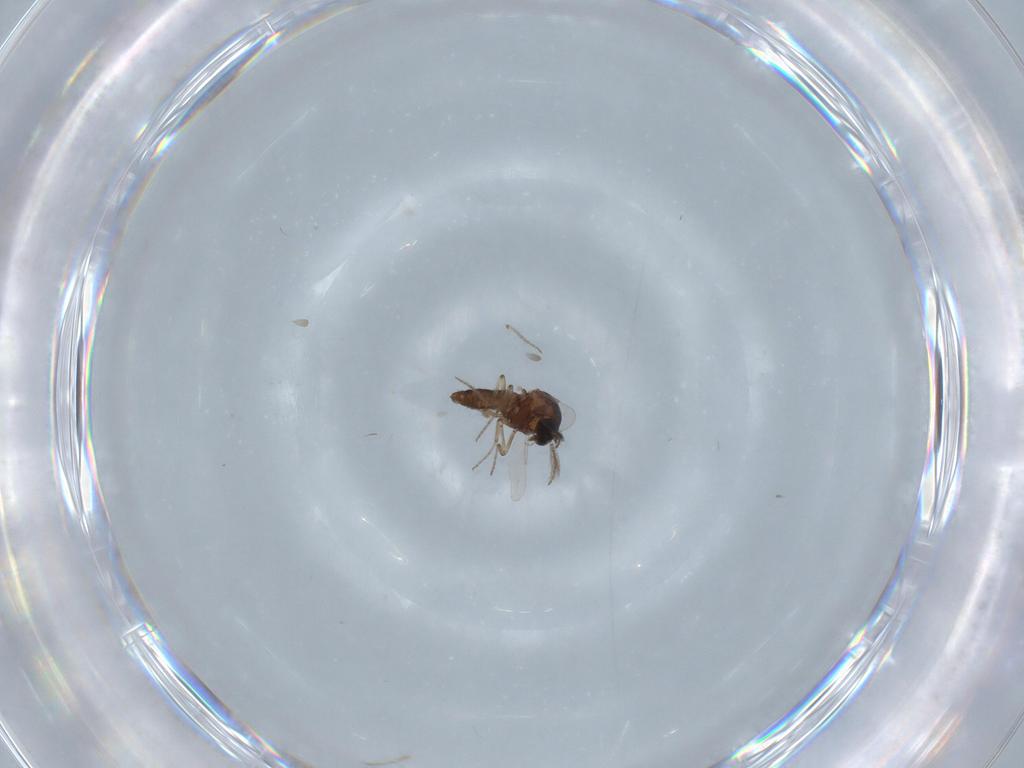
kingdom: Animalia
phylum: Arthropoda
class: Insecta
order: Diptera
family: Ceratopogonidae
